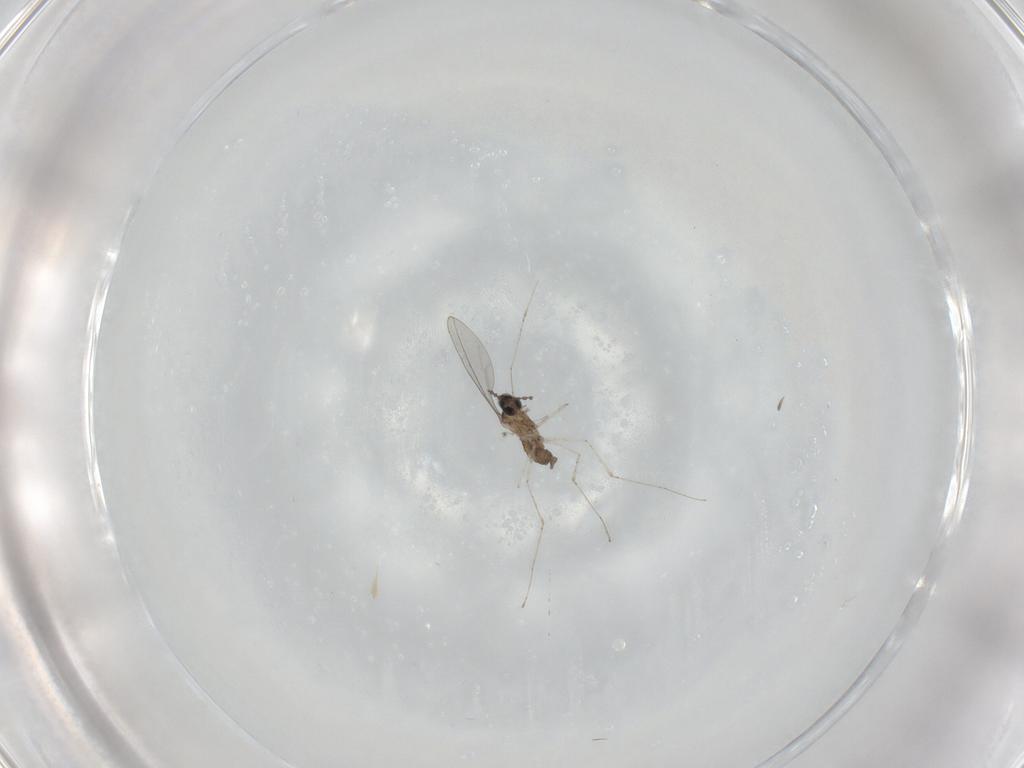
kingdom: Animalia
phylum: Arthropoda
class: Insecta
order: Diptera
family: Cecidomyiidae
